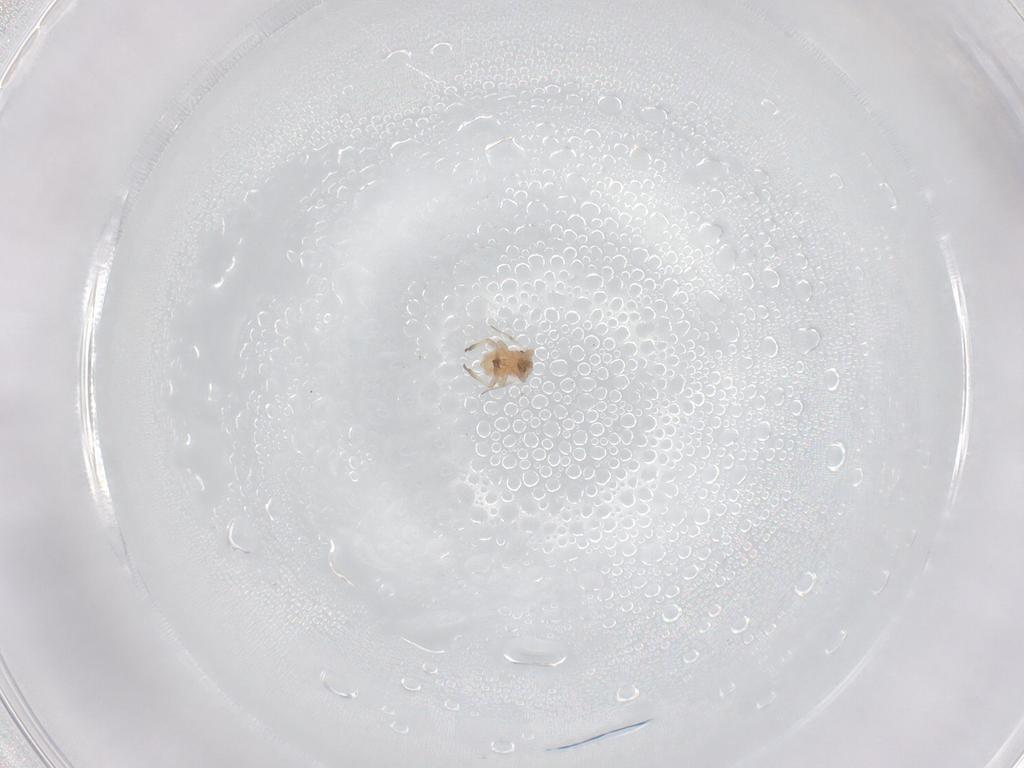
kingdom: Animalia
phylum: Arthropoda
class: Insecta
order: Hemiptera
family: Aphididae
